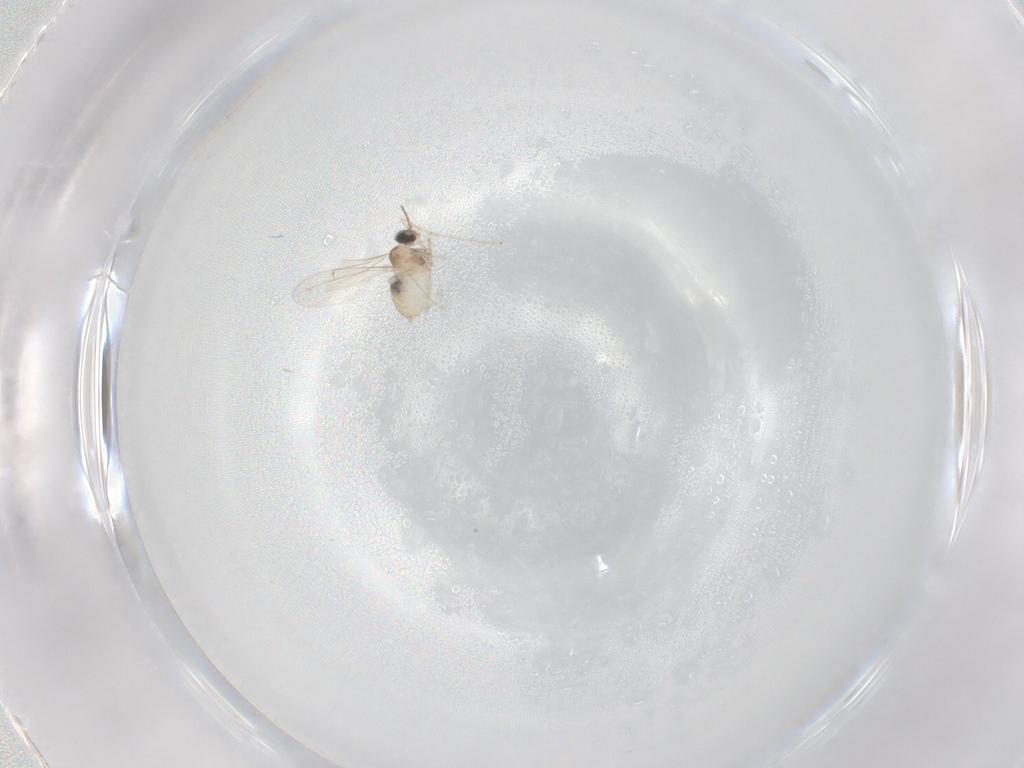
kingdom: Animalia
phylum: Arthropoda
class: Insecta
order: Diptera
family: Cecidomyiidae
